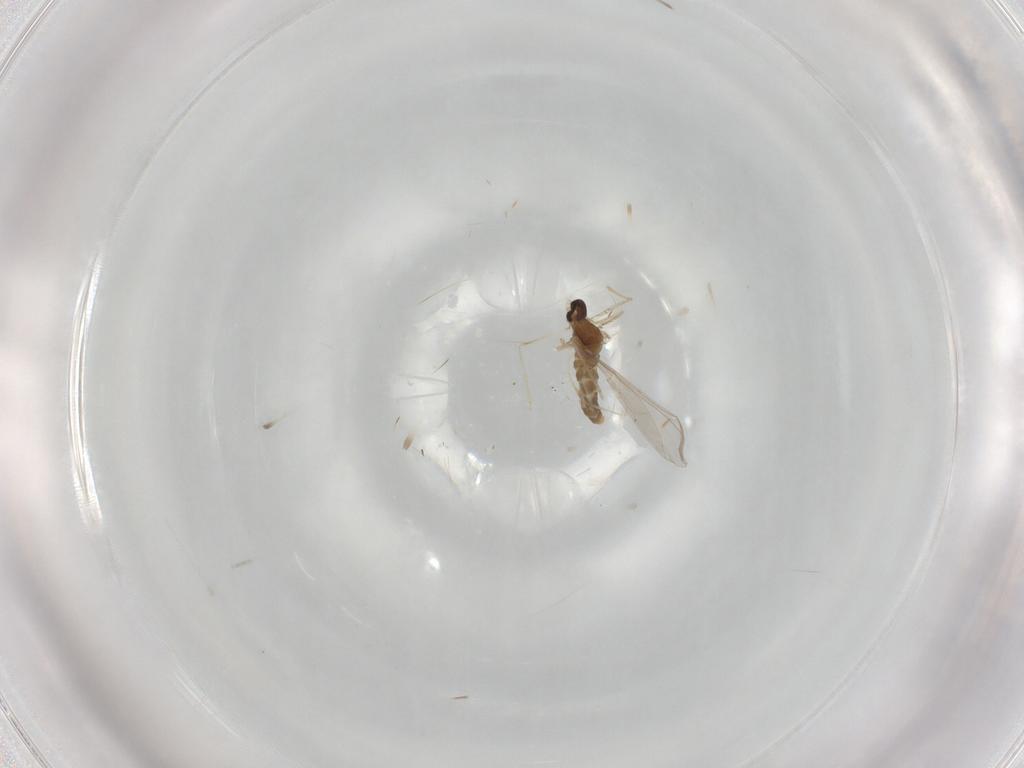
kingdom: Animalia
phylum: Arthropoda
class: Insecta
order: Diptera
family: Cecidomyiidae
